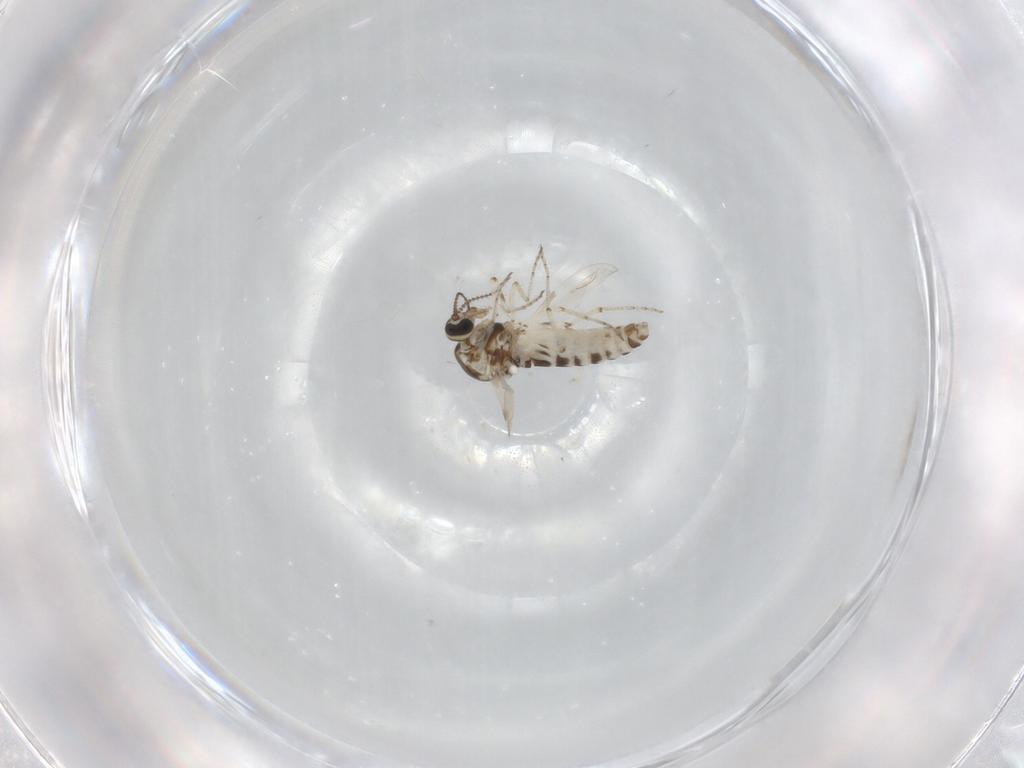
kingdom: Animalia
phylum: Arthropoda
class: Insecta
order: Diptera
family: Ceratopogonidae
